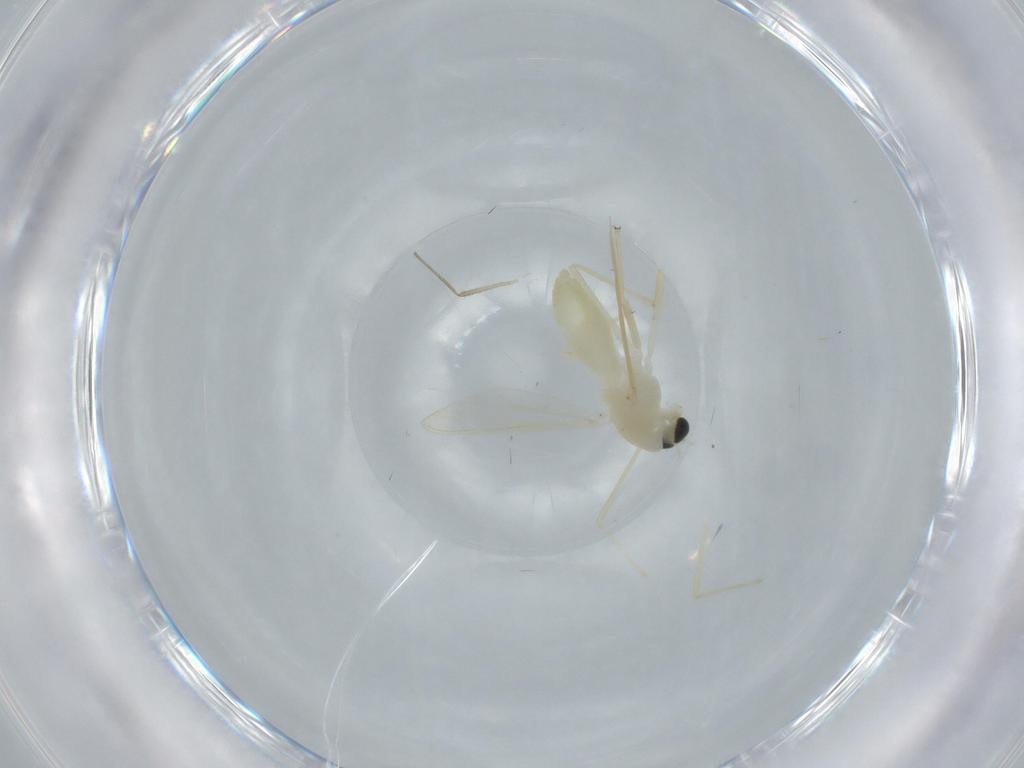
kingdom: Animalia
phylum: Arthropoda
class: Insecta
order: Diptera
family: Chironomidae
